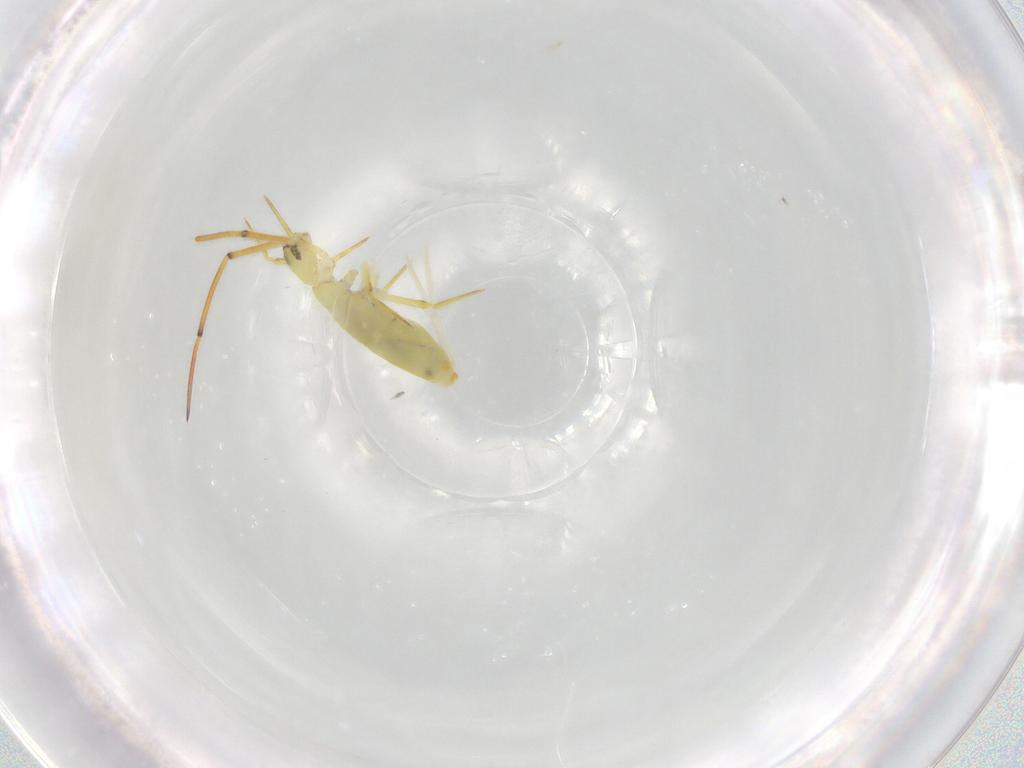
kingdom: Animalia
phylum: Arthropoda
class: Collembola
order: Entomobryomorpha
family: Entomobryidae
